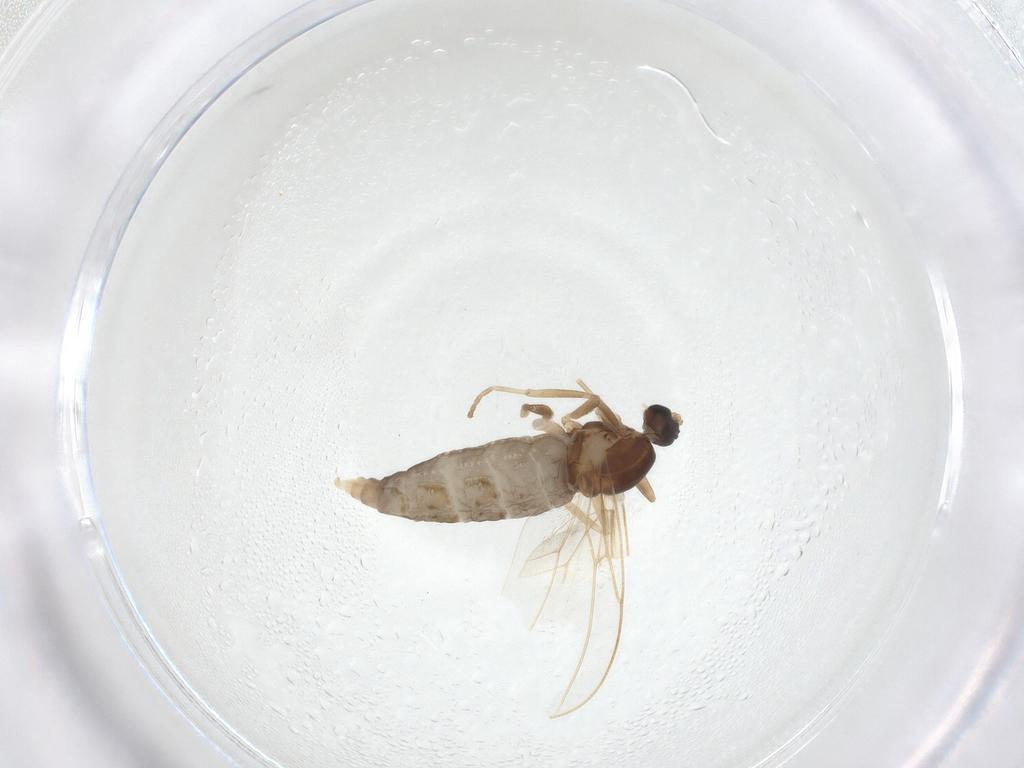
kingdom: Animalia
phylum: Arthropoda
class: Insecta
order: Diptera
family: Cecidomyiidae
